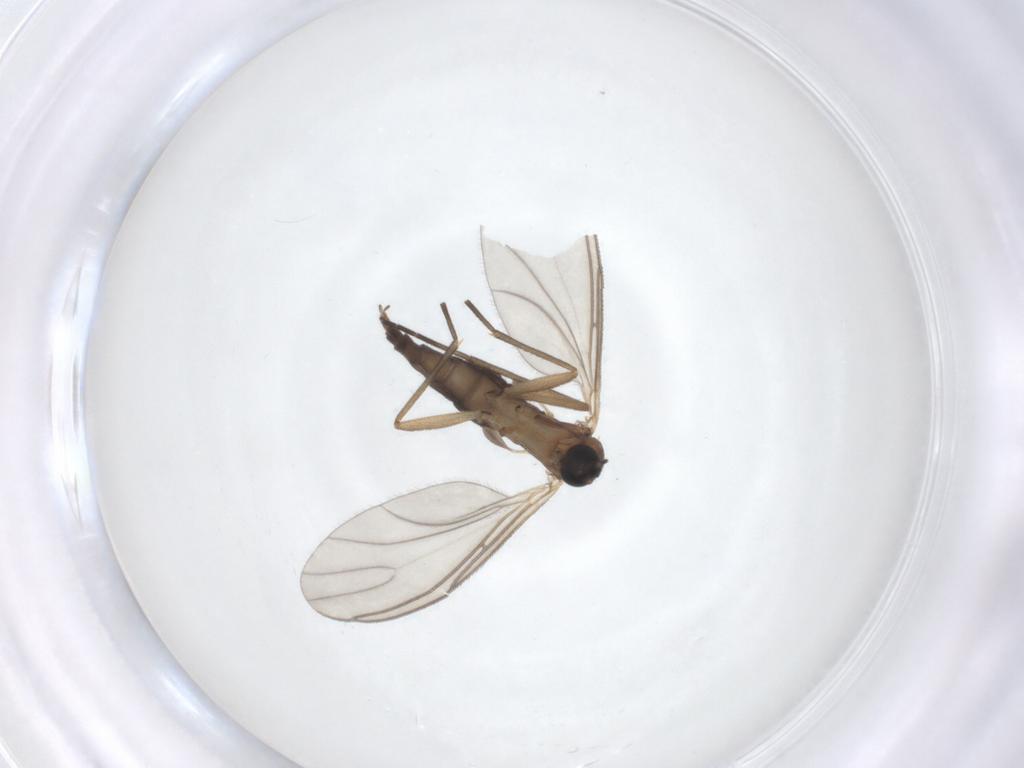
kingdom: Animalia
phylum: Arthropoda
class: Insecta
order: Diptera
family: Sciaridae
